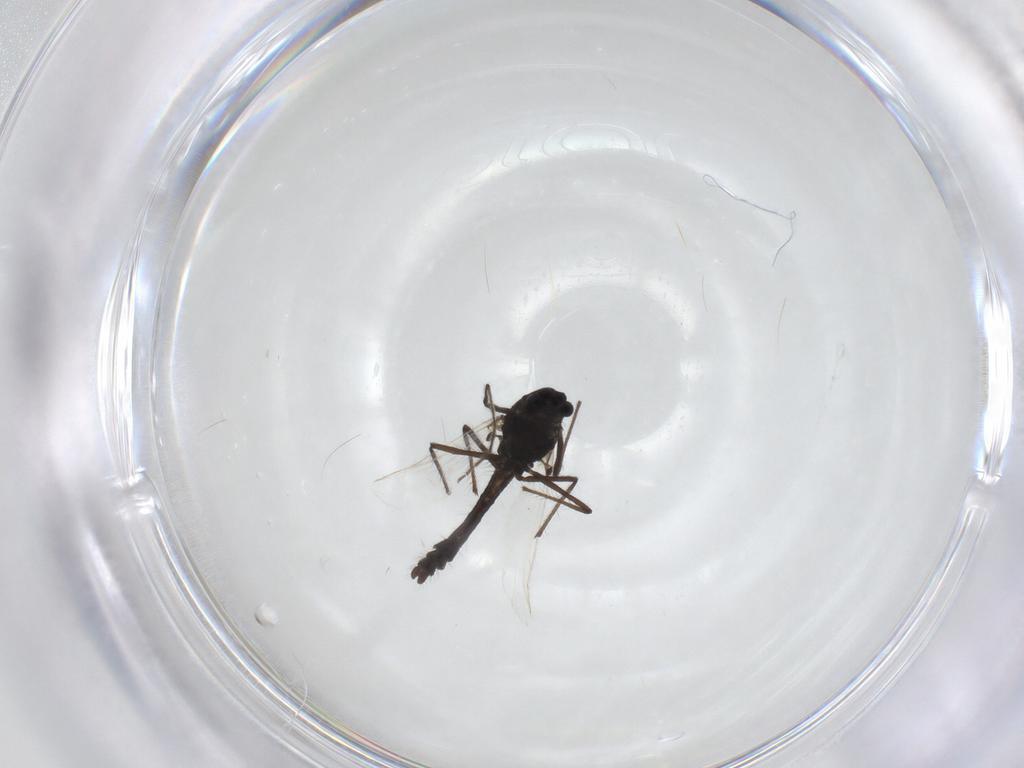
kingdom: Animalia
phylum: Arthropoda
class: Insecta
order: Diptera
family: Chironomidae
